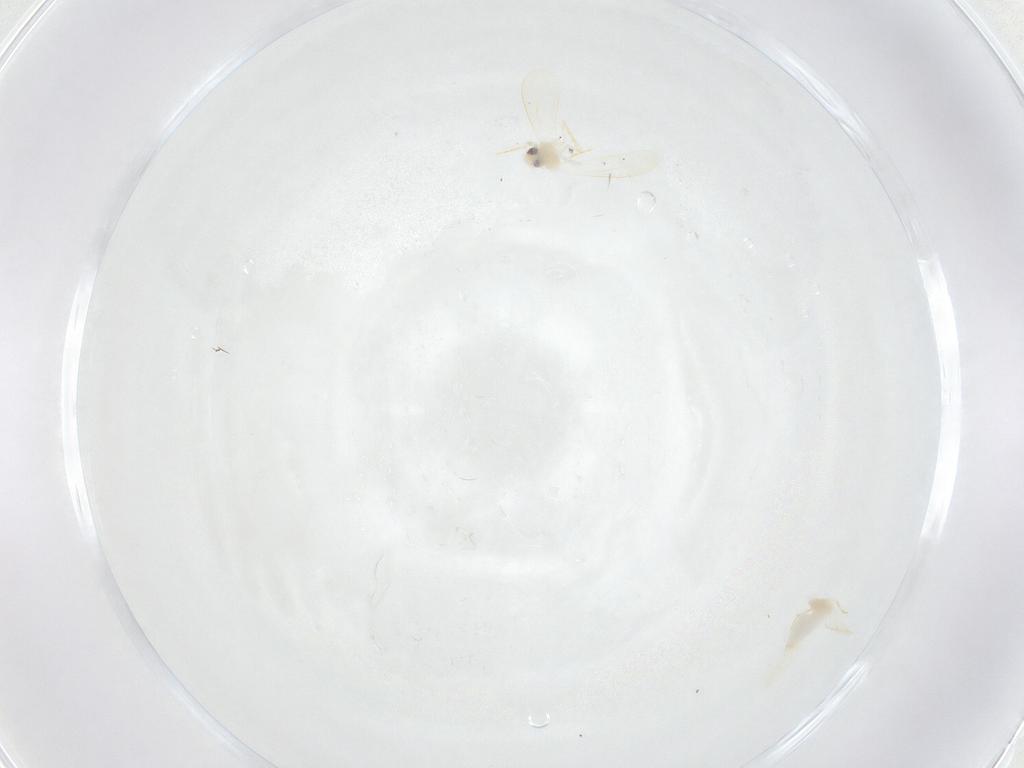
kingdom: Animalia
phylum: Arthropoda
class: Insecta
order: Hemiptera
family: Aleyrodidae
